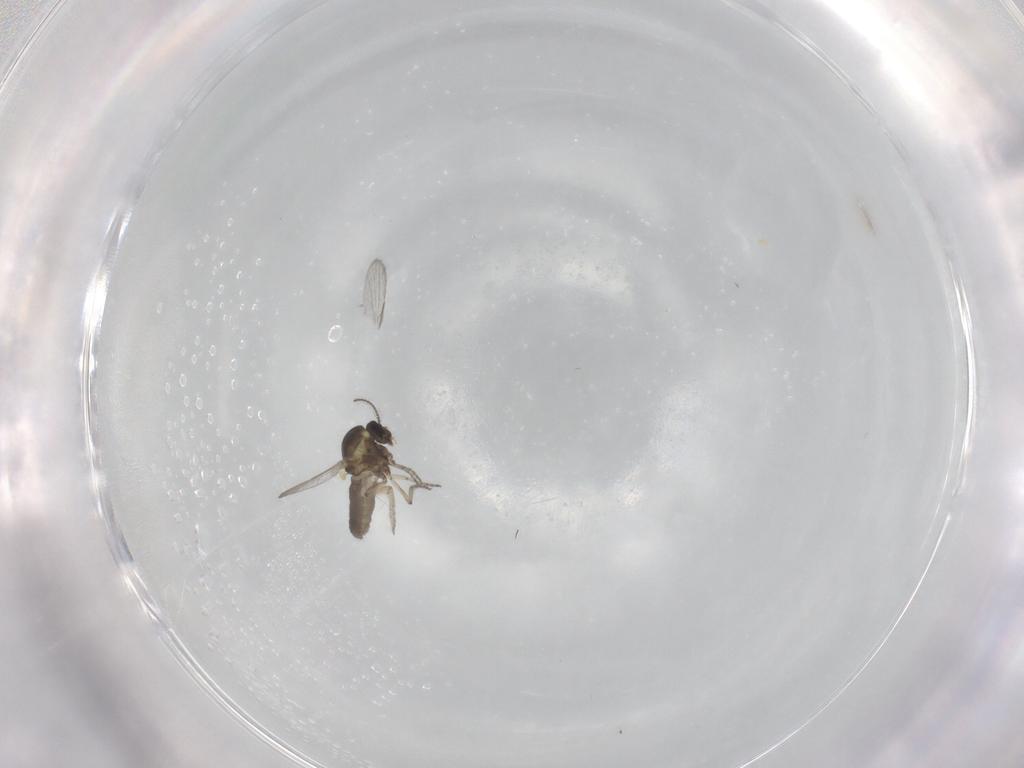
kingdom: Animalia
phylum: Arthropoda
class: Insecta
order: Diptera
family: Ceratopogonidae
